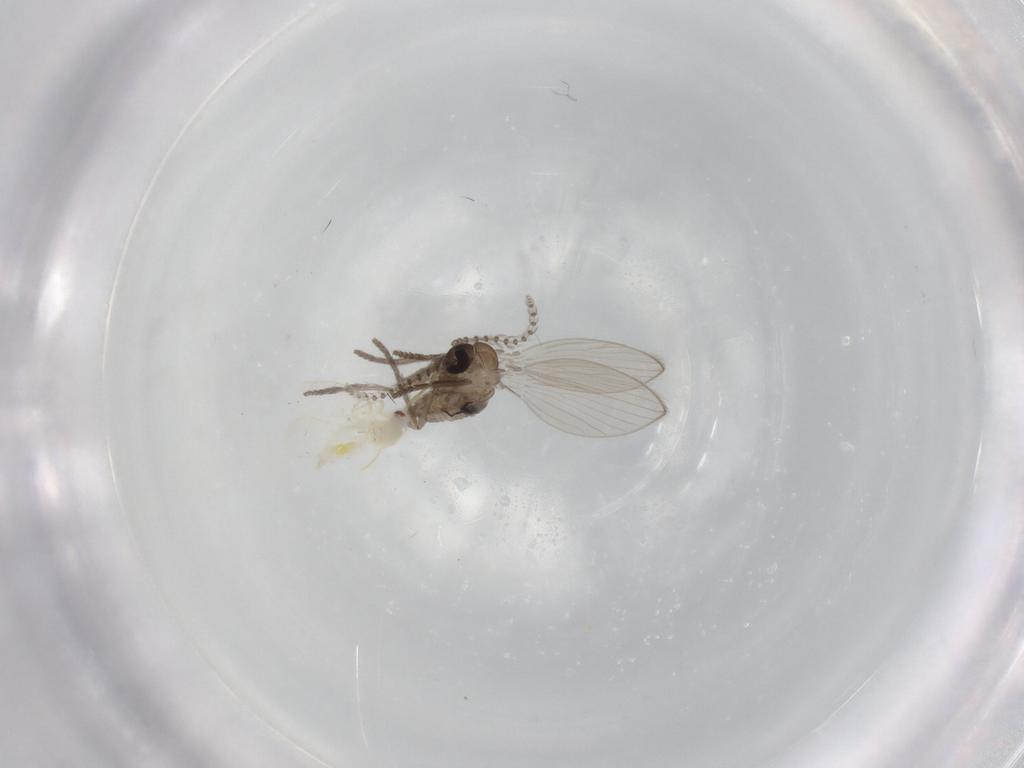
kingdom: Animalia
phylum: Arthropoda
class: Insecta
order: Diptera
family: Psychodidae
